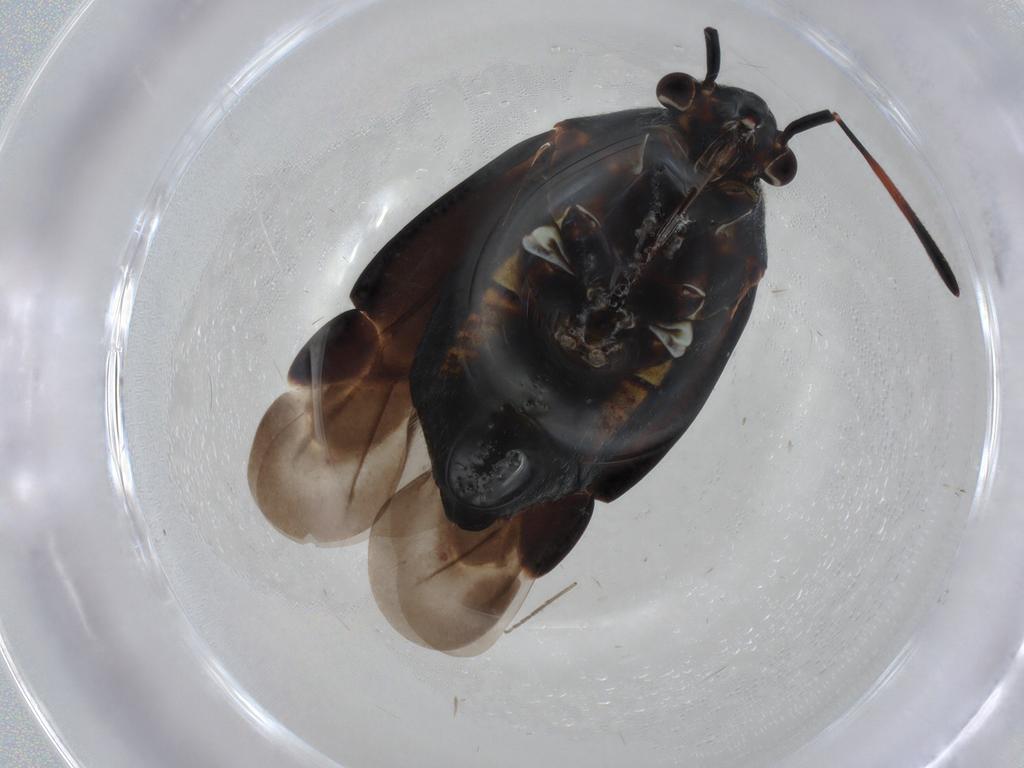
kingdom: Animalia
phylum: Arthropoda
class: Insecta
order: Hemiptera
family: Miridae
